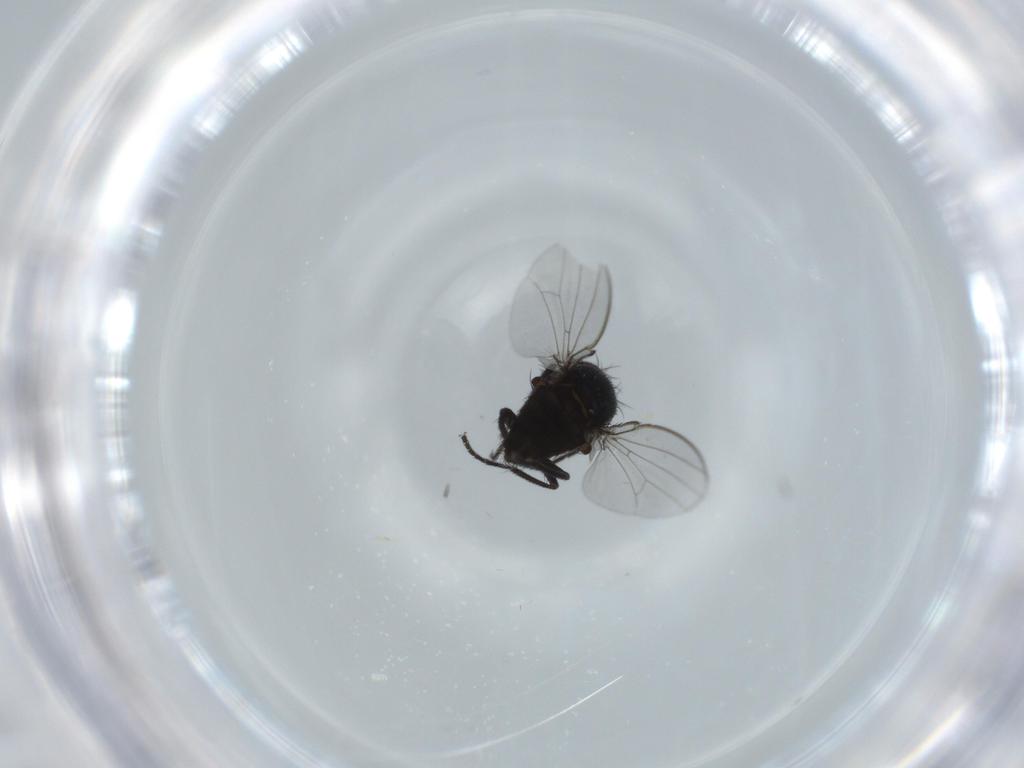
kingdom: Animalia
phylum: Arthropoda
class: Insecta
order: Diptera
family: Milichiidae
